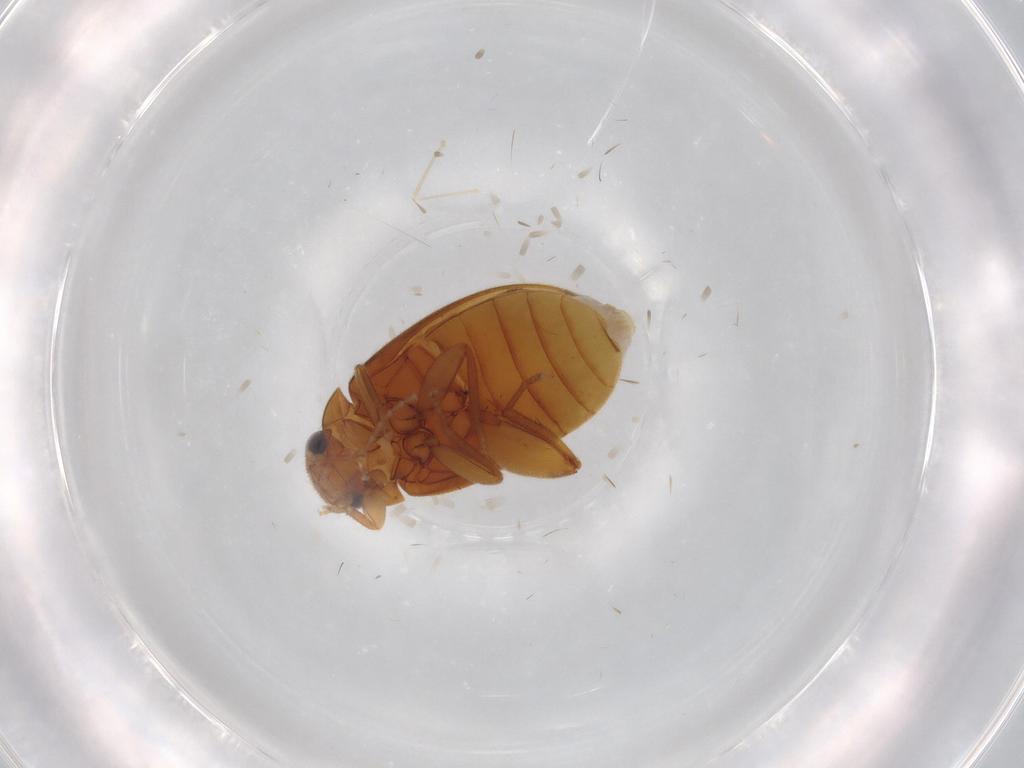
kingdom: Animalia
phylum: Arthropoda
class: Insecta
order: Coleoptera
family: Scirtidae
